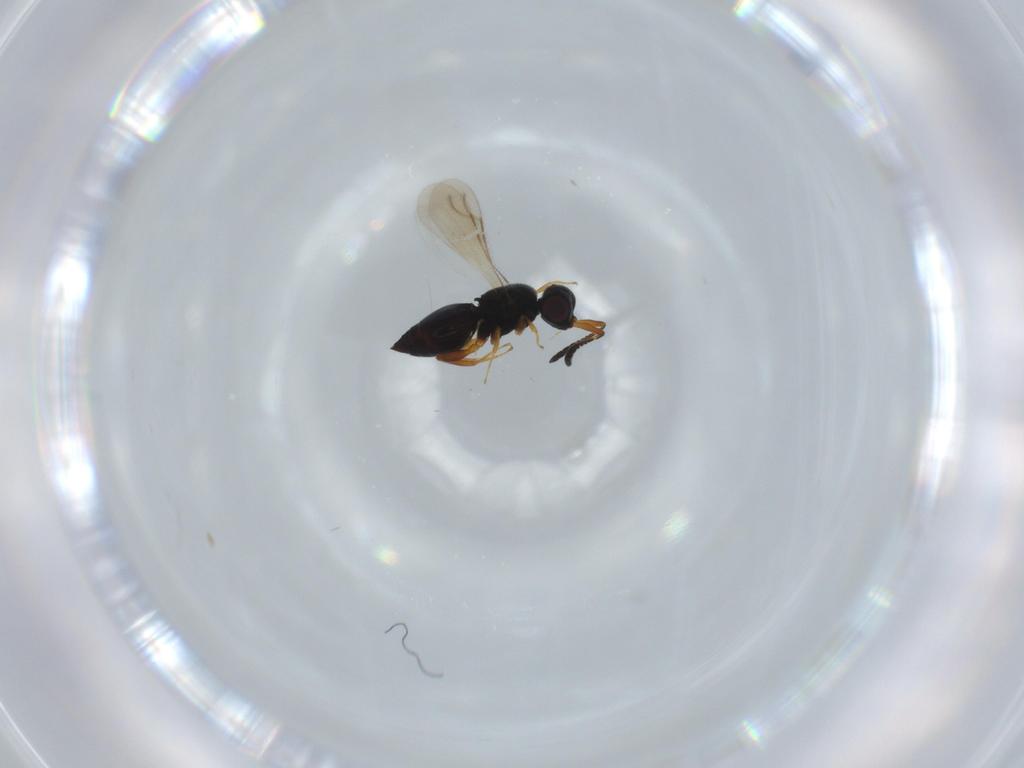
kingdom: Animalia
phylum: Arthropoda
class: Insecta
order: Hymenoptera
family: Ceraphronidae
